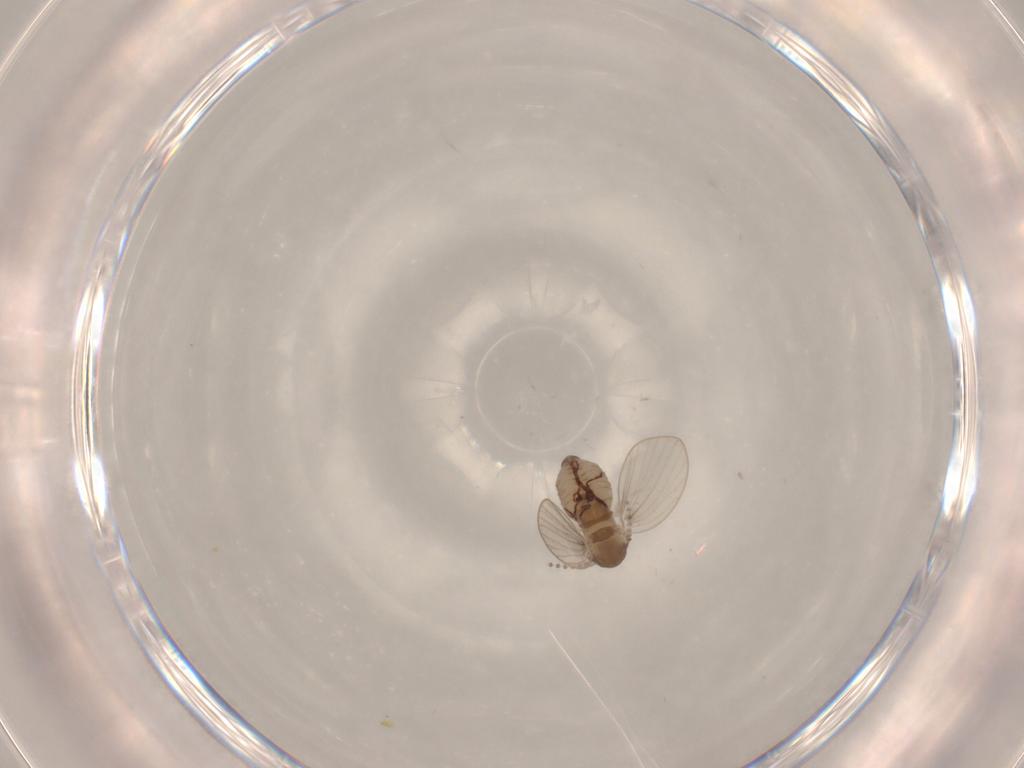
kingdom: Animalia
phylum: Arthropoda
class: Insecta
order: Diptera
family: Psychodidae
